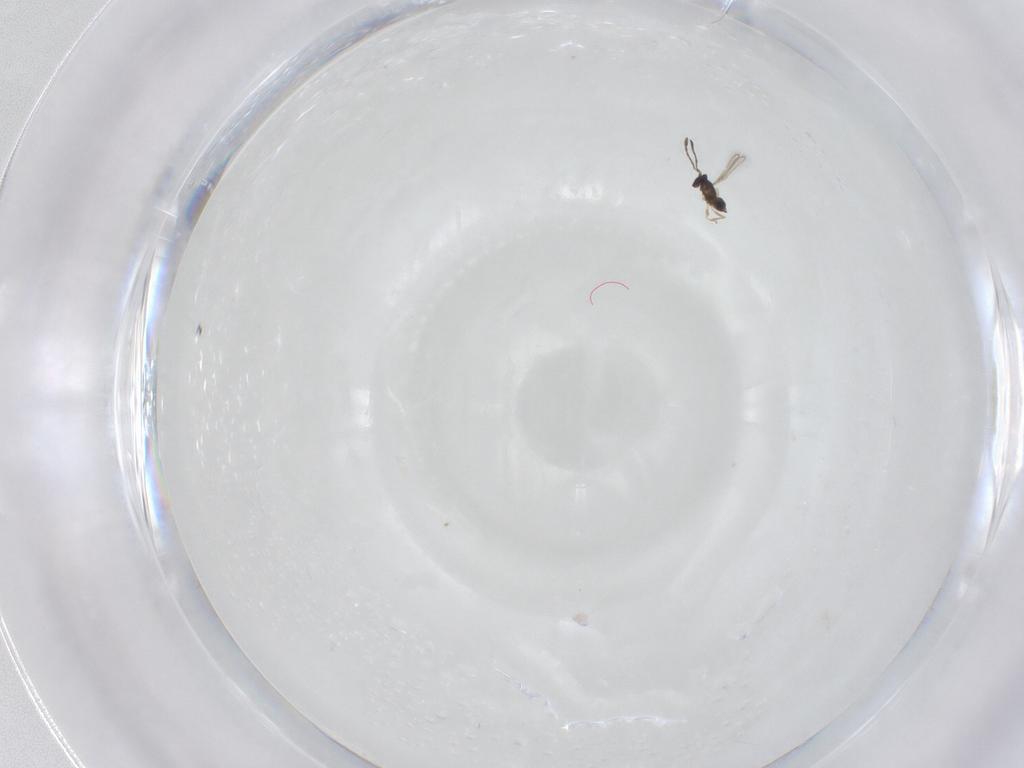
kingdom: Animalia
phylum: Arthropoda
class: Insecta
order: Hymenoptera
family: Mymaridae
